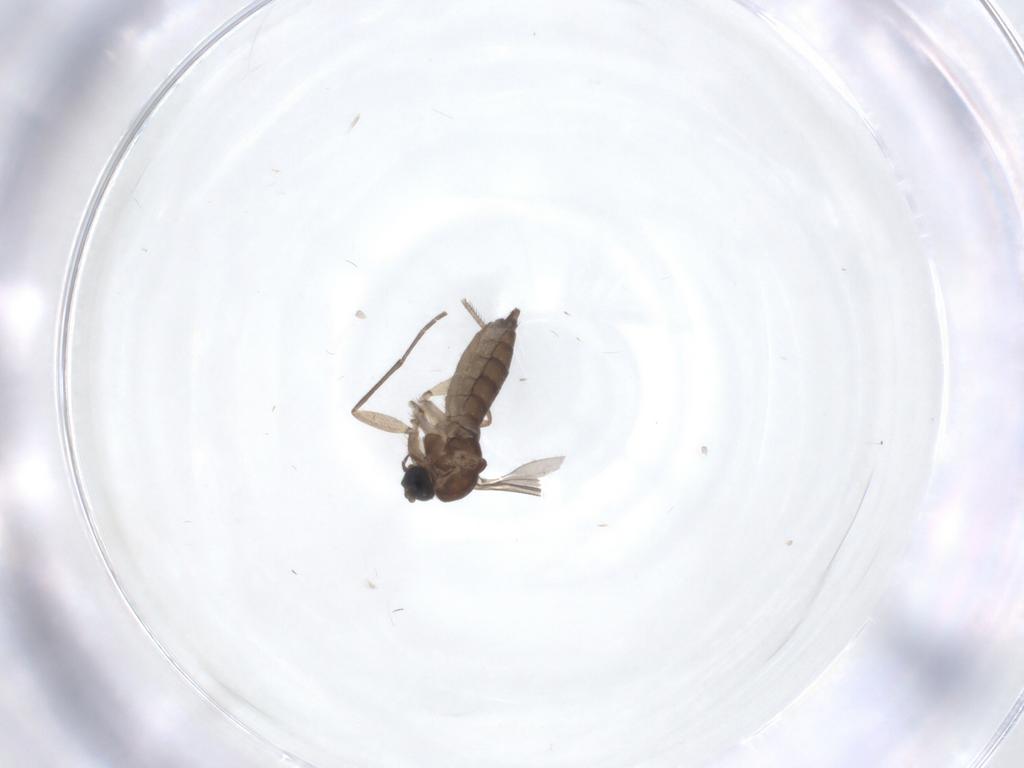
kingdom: Animalia
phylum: Arthropoda
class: Insecta
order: Diptera
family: Sciaridae
